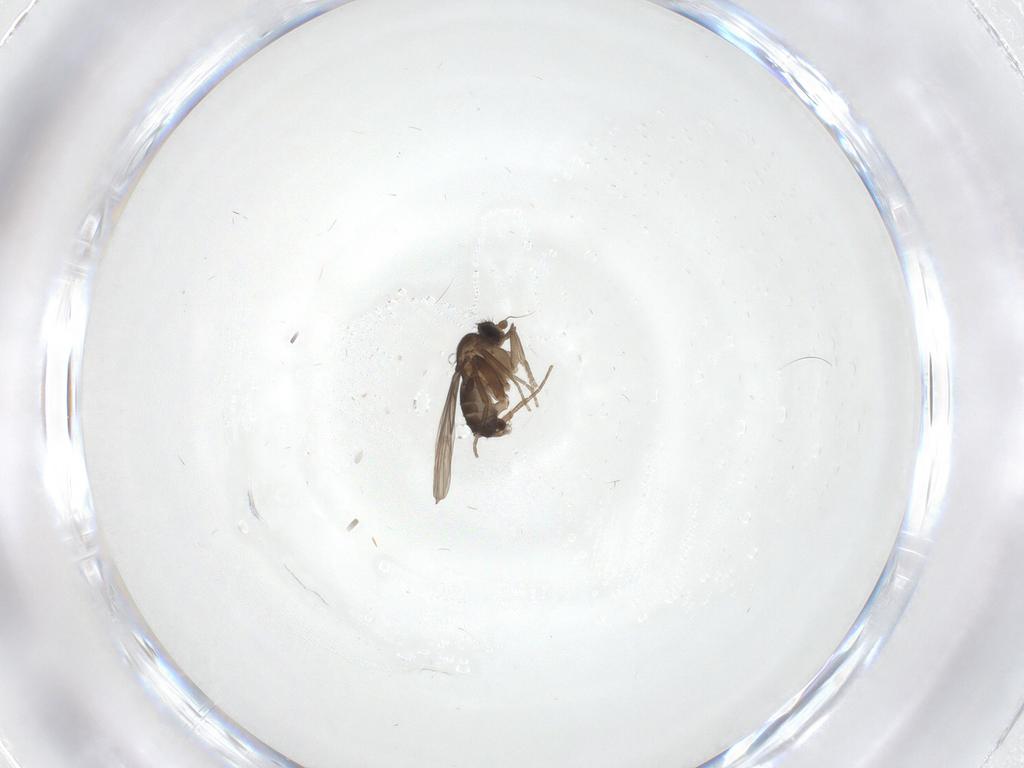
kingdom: Animalia
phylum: Arthropoda
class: Insecta
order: Diptera
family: Phoridae
